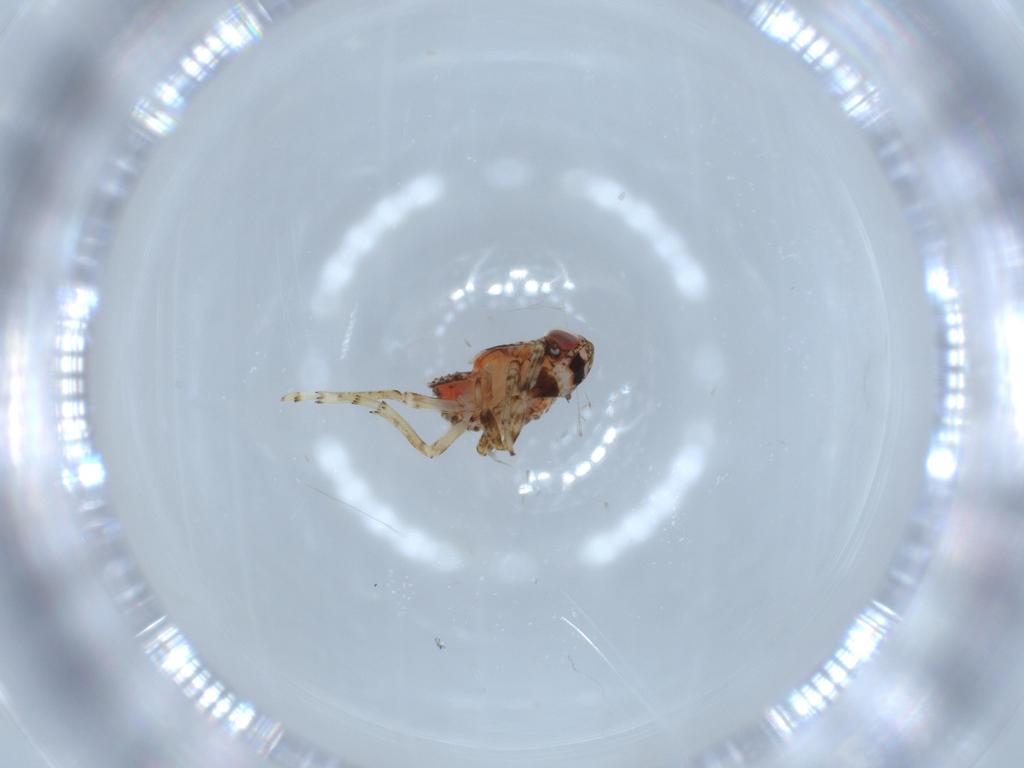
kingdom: Animalia
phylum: Arthropoda
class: Insecta
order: Hemiptera
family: Issidae
